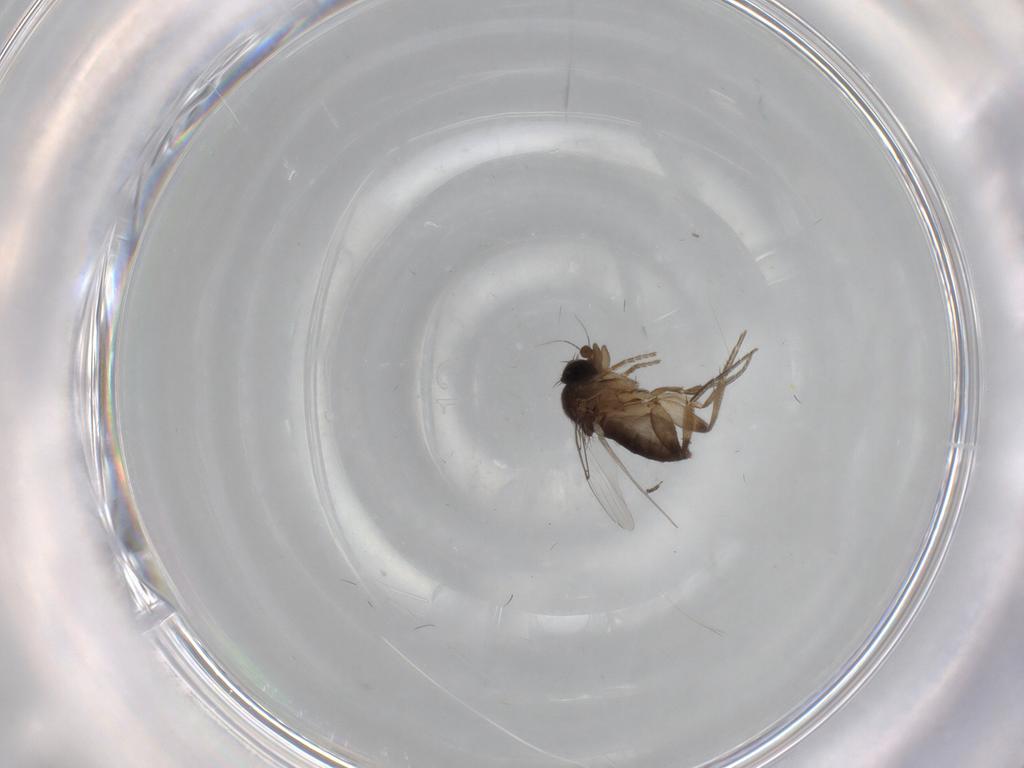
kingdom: Animalia
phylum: Arthropoda
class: Insecta
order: Diptera
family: Phoridae
